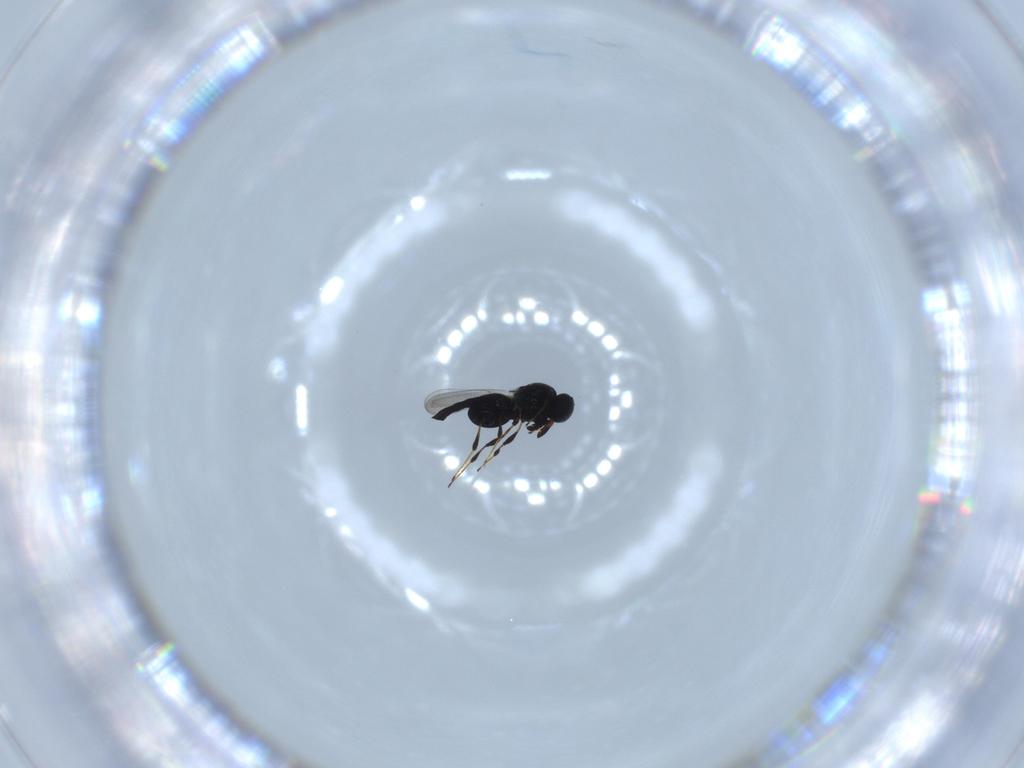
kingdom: Animalia
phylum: Arthropoda
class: Insecta
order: Hymenoptera
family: Platygastridae
